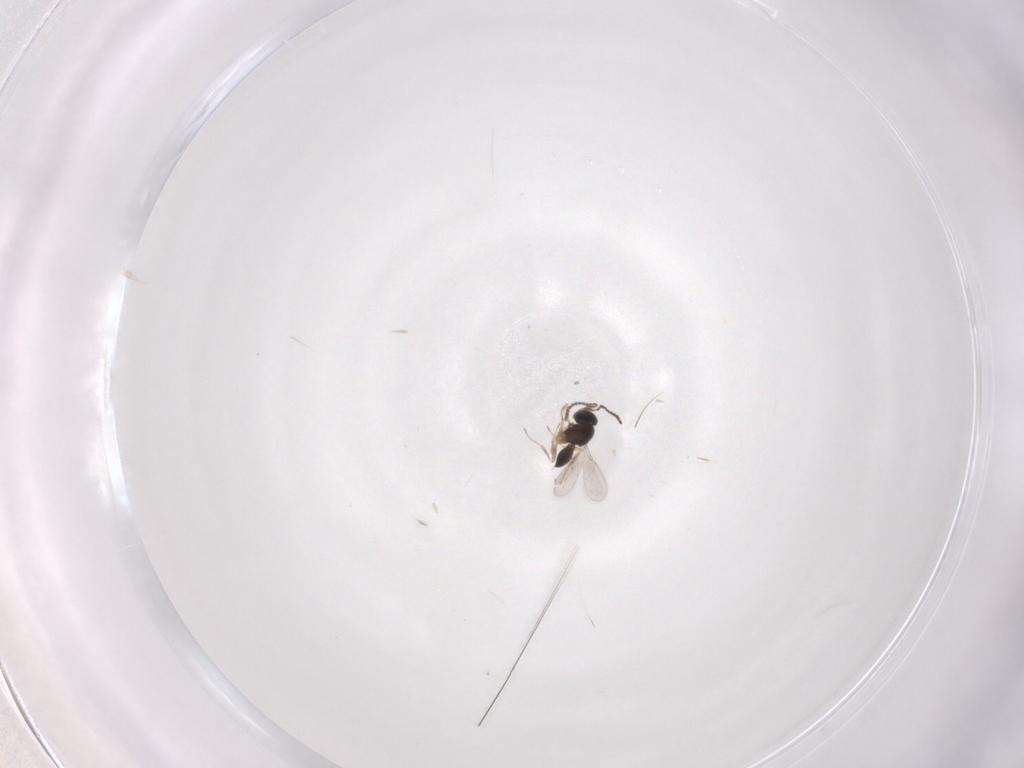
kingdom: Animalia
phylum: Arthropoda
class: Insecta
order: Hymenoptera
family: Scelionidae
